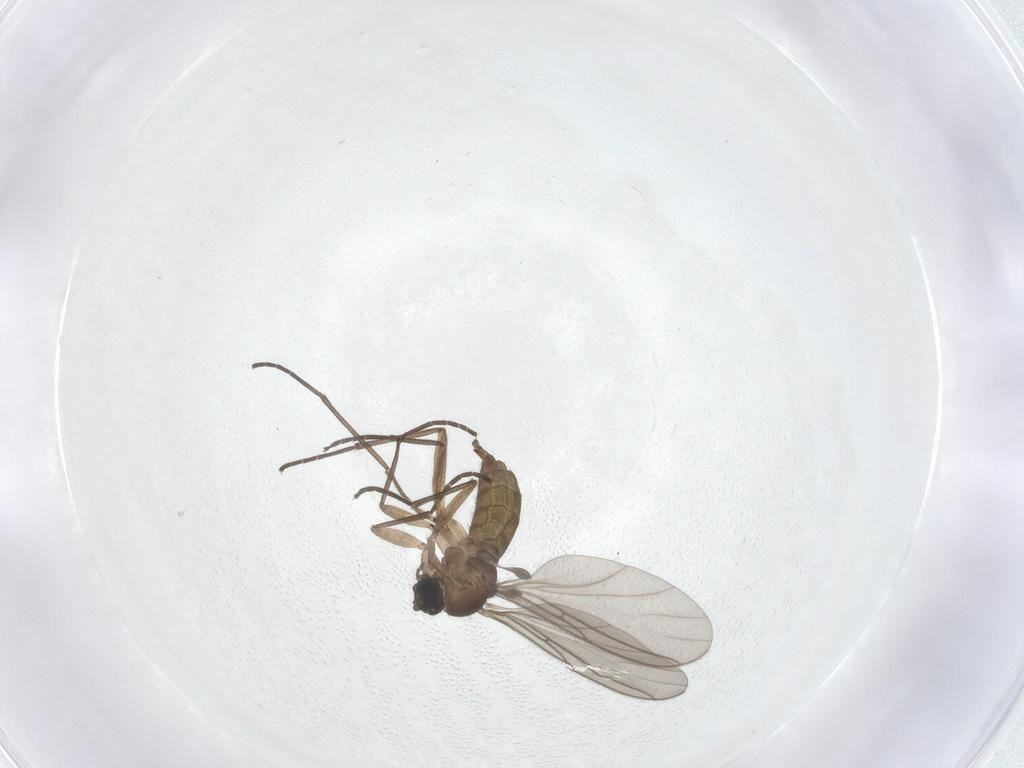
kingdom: Animalia
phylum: Arthropoda
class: Insecta
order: Diptera
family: Sciaridae
